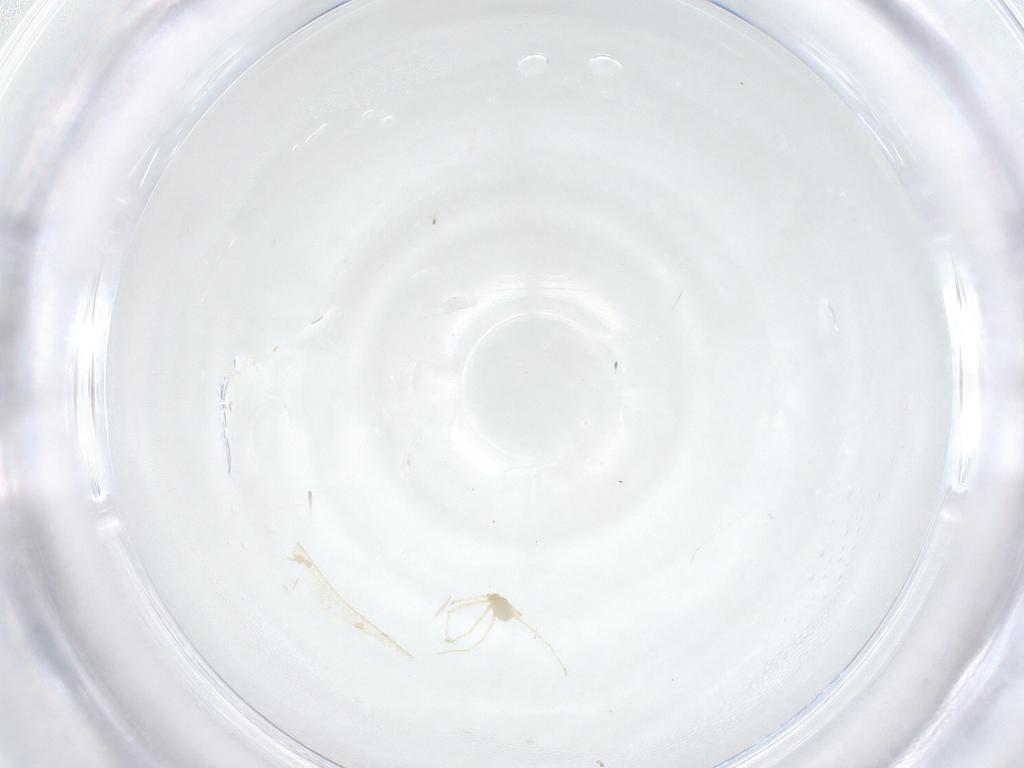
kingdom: Animalia
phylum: Arthropoda
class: Arachnida
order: Trombidiformes
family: Erythraeidae
